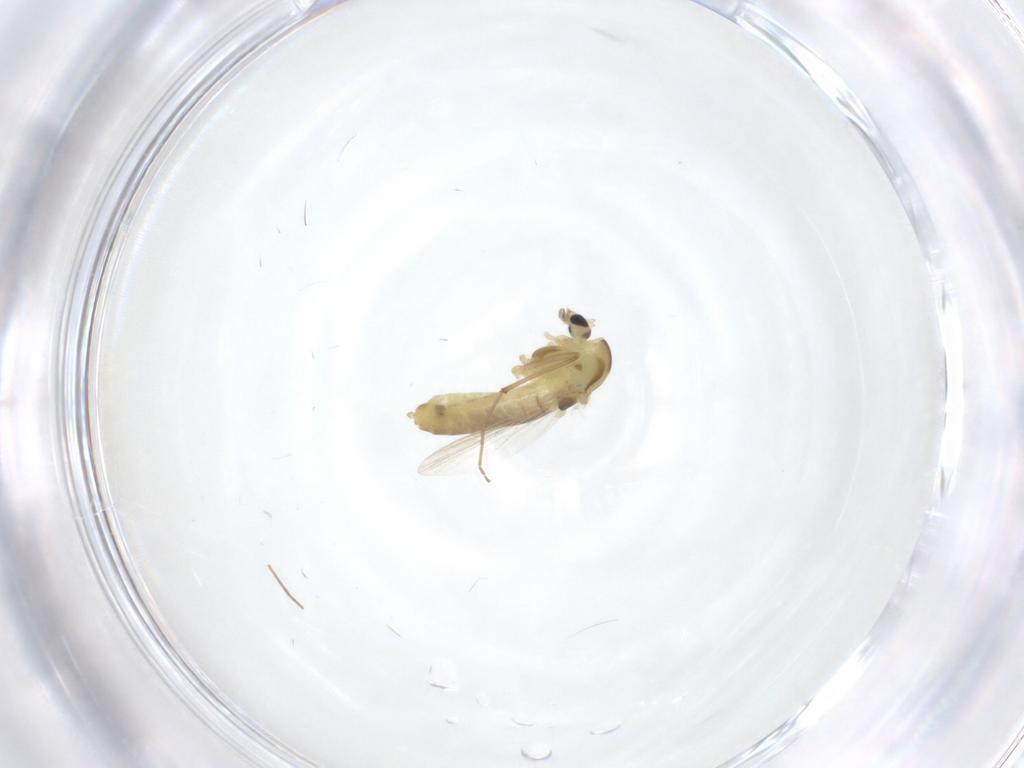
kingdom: Animalia
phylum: Arthropoda
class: Insecta
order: Diptera
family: Chironomidae
